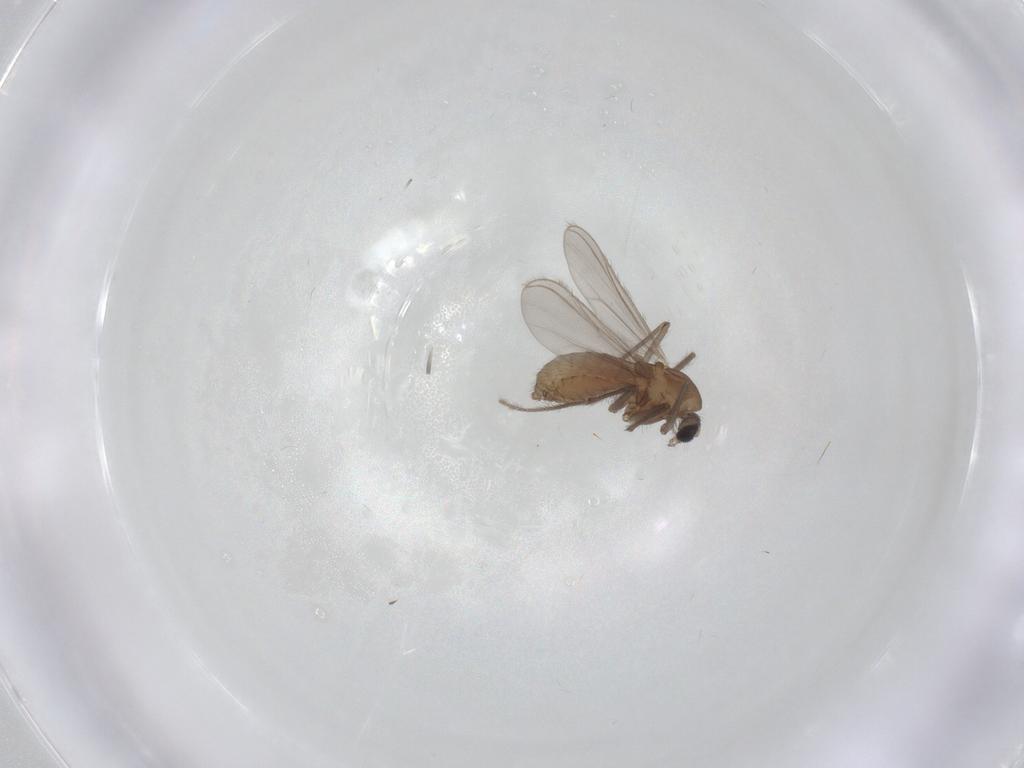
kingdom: Animalia
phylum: Arthropoda
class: Insecta
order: Diptera
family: Chironomidae
